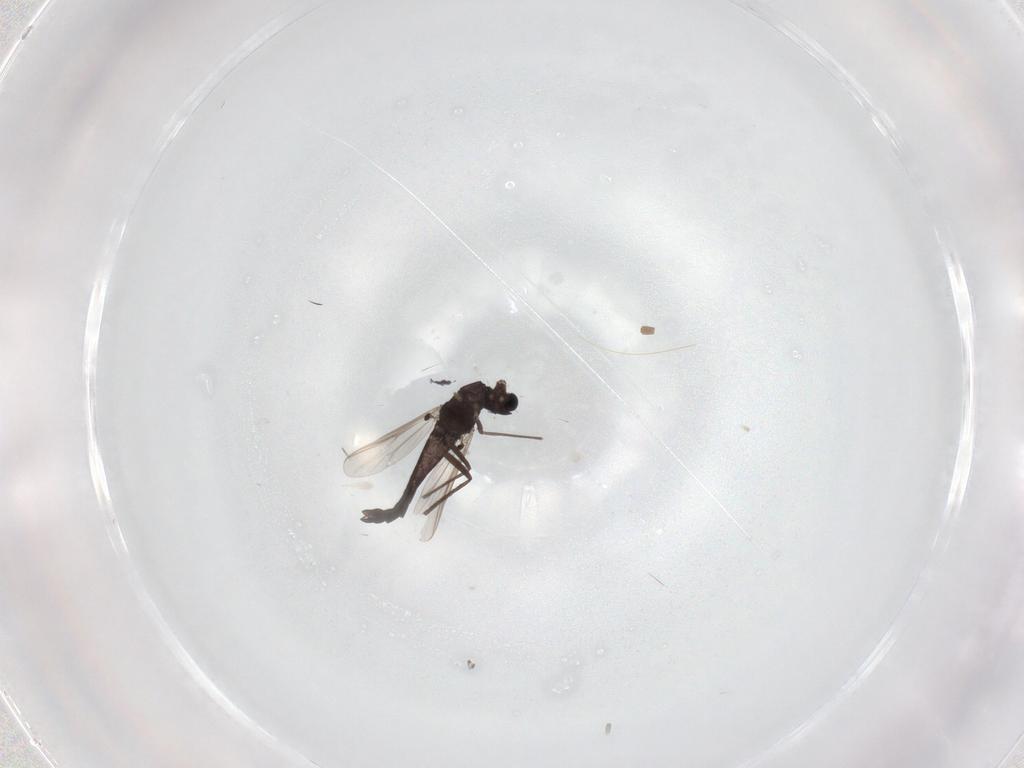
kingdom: Animalia
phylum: Arthropoda
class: Insecta
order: Diptera
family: Chironomidae
